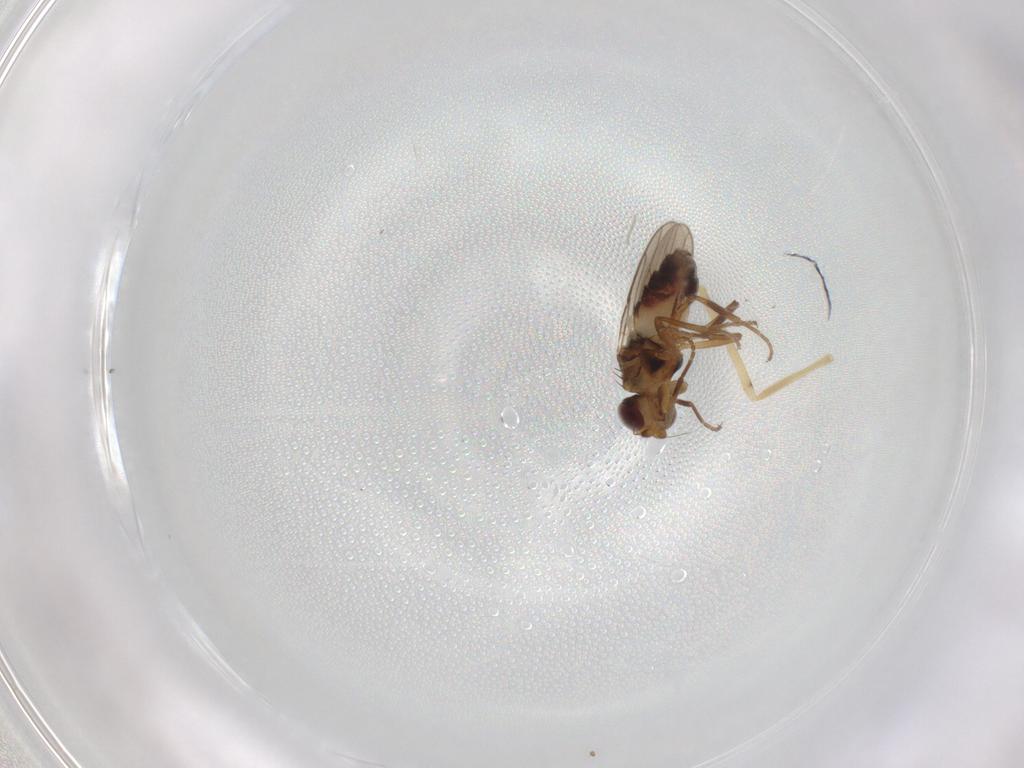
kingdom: Animalia
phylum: Arthropoda
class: Insecta
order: Diptera
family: Chloropidae
